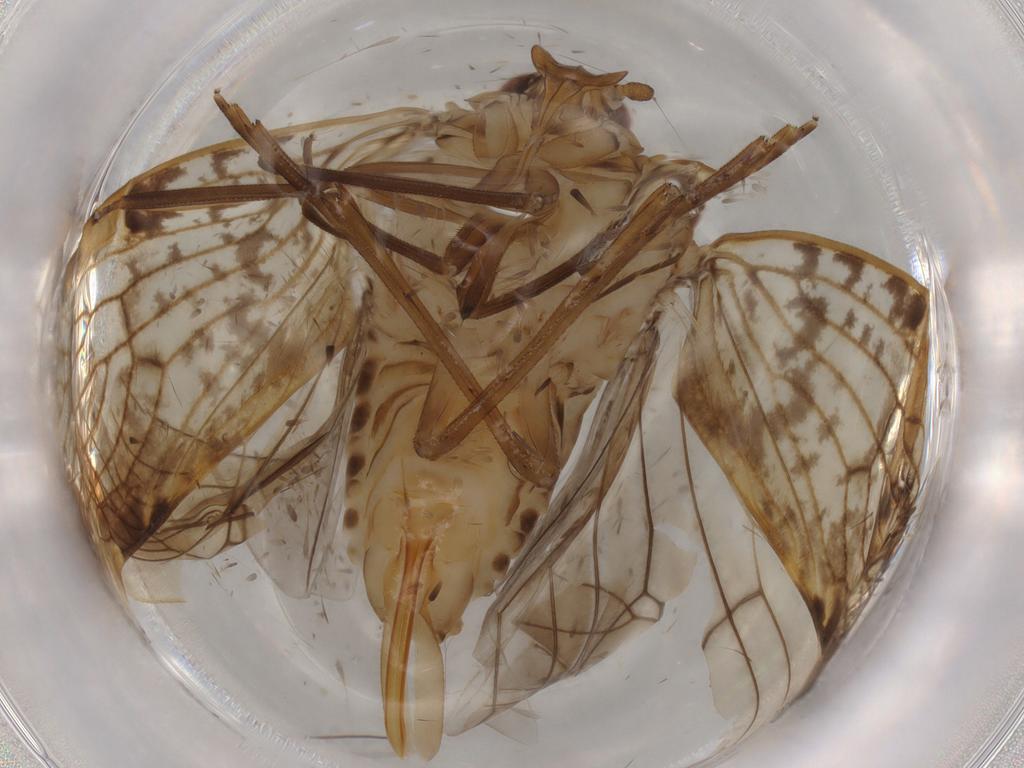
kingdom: Animalia
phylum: Arthropoda
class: Insecta
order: Hemiptera
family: Cixiidae
